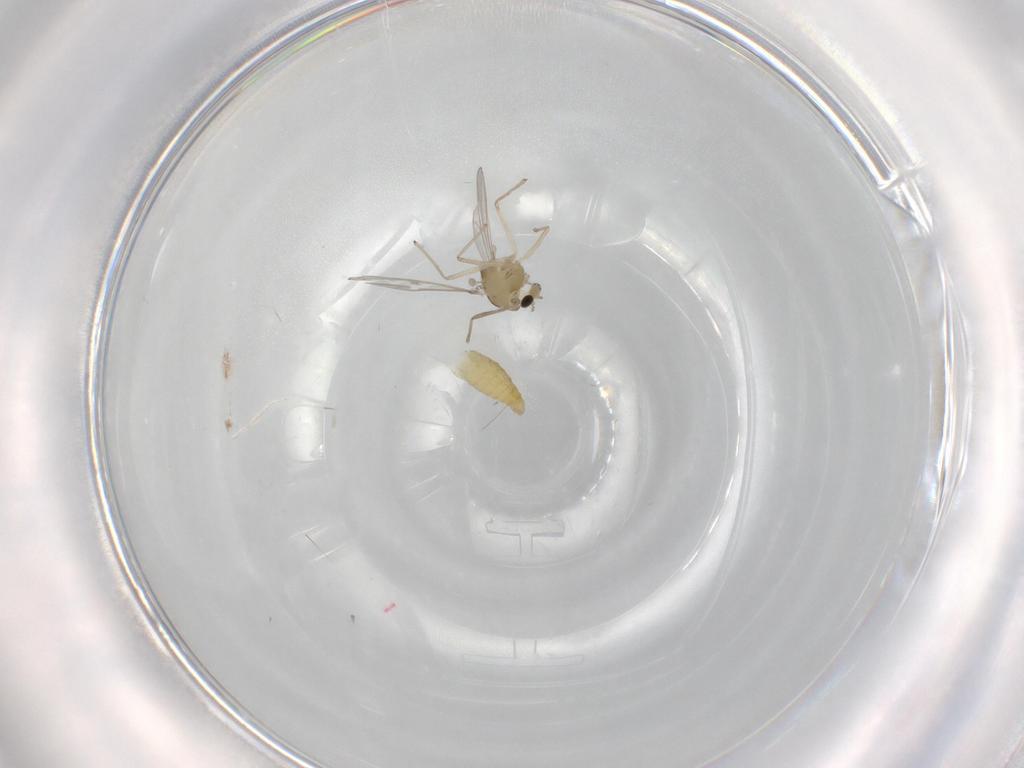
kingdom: Animalia
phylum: Arthropoda
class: Insecta
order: Diptera
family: Chironomidae
